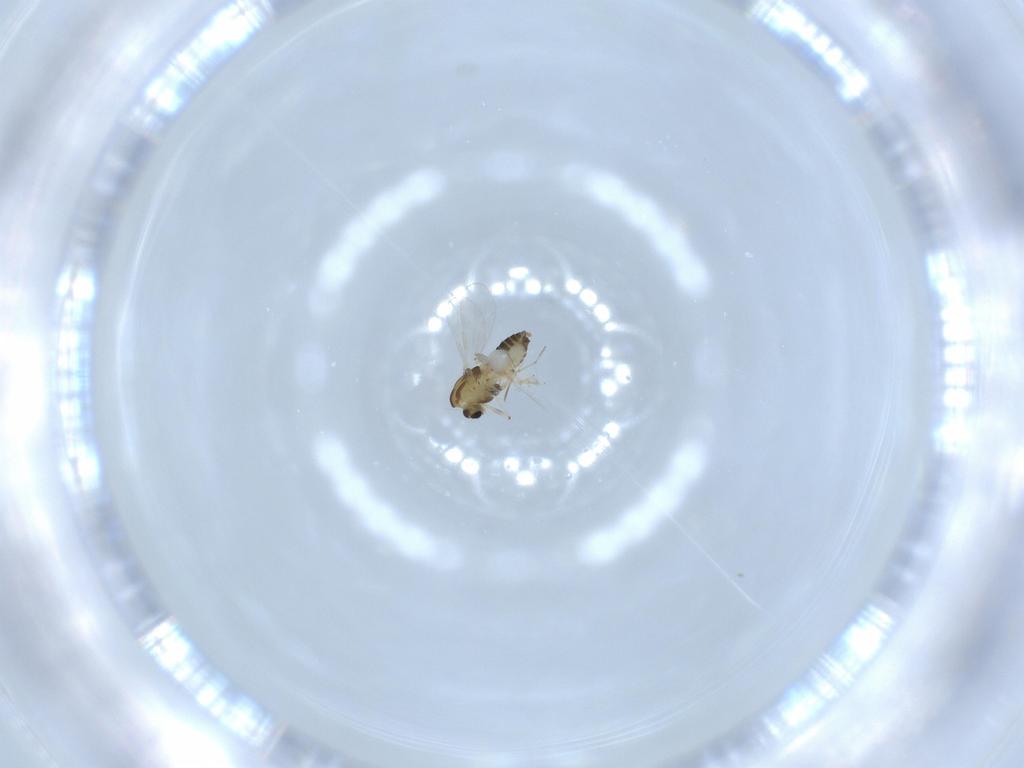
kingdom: Animalia
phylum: Arthropoda
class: Insecta
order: Diptera
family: Chironomidae
